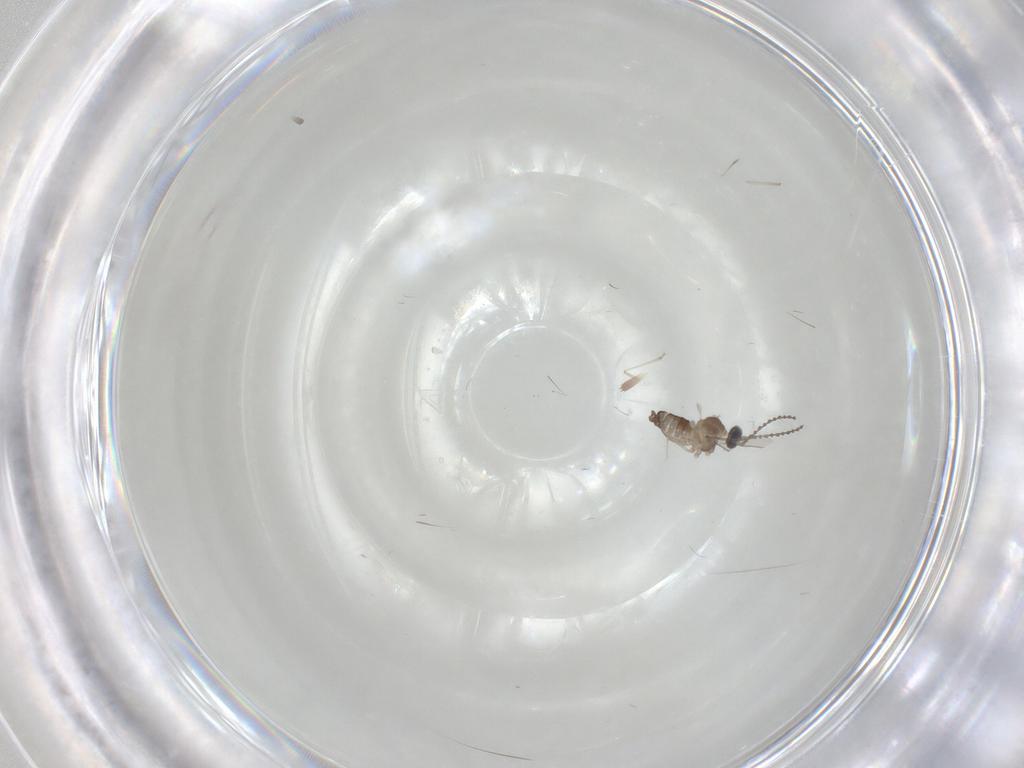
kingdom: Animalia
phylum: Arthropoda
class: Insecta
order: Diptera
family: Cecidomyiidae
